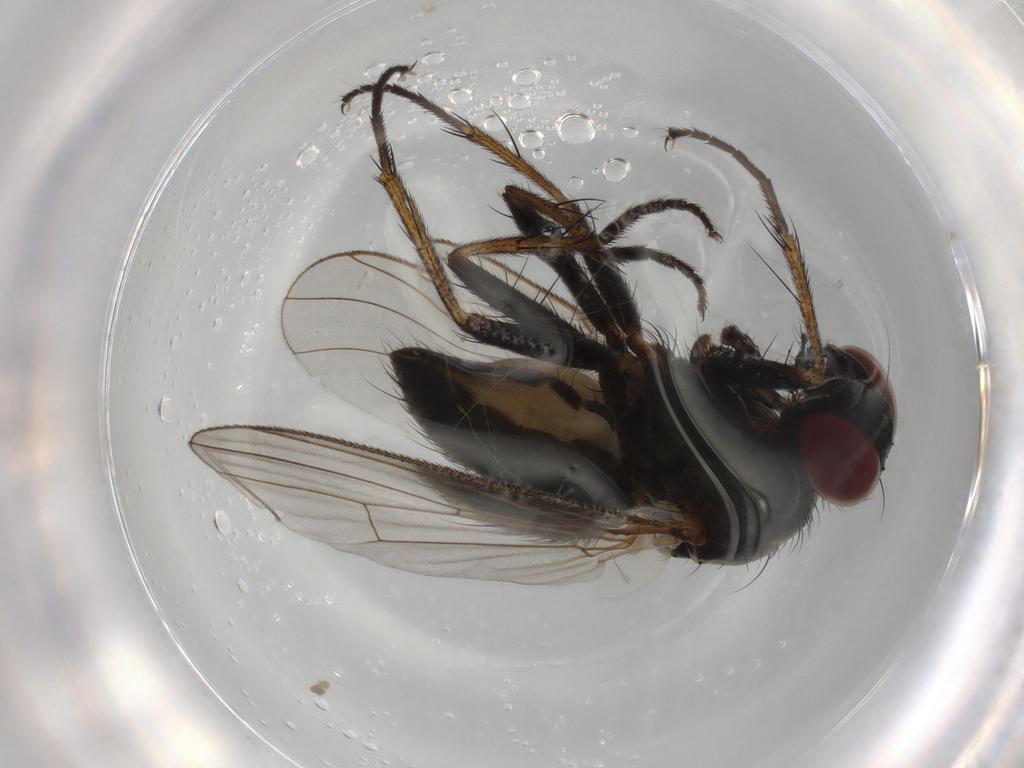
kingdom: Animalia
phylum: Arthropoda
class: Insecta
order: Diptera
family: Muscidae
